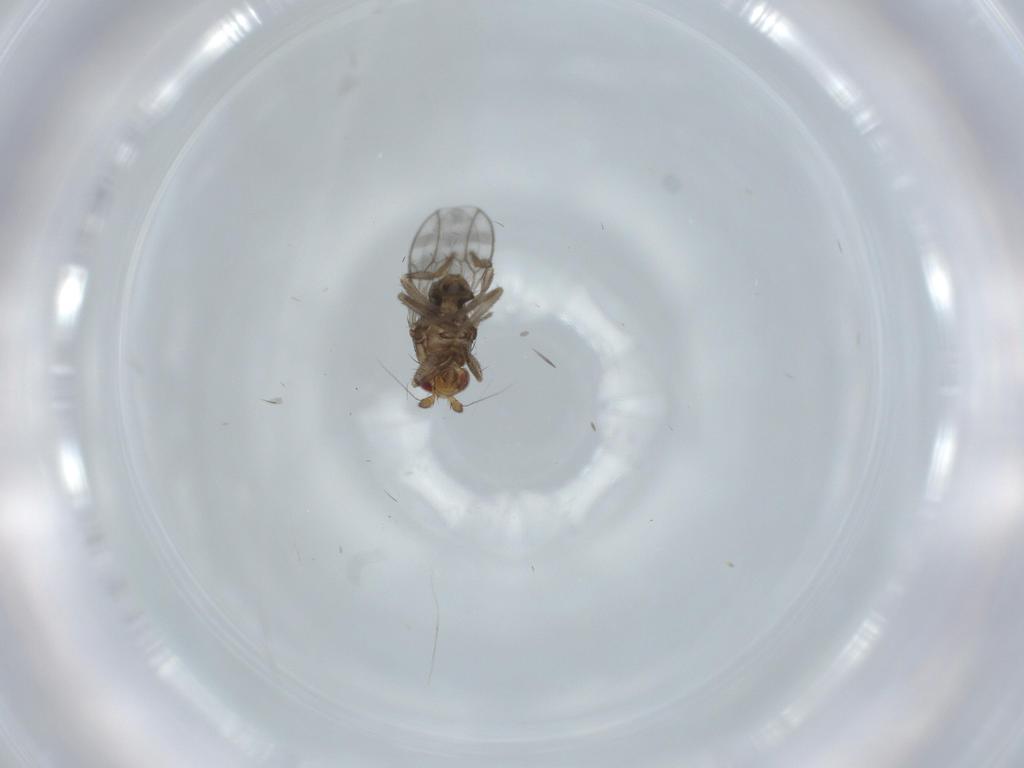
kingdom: Animalia
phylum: Arthropoda
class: Insecta
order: Diptera
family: Sphaeroceridae
